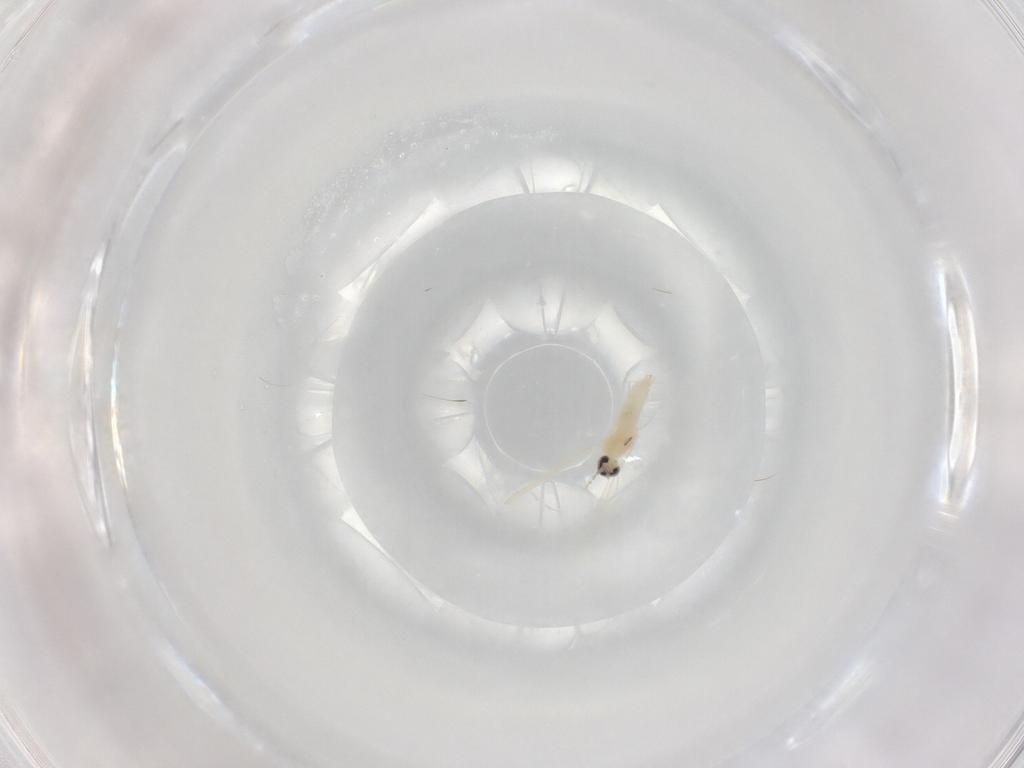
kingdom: Animalia
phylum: Arthropoda
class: Insecta
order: Diptera
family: Cecidomyiidae
